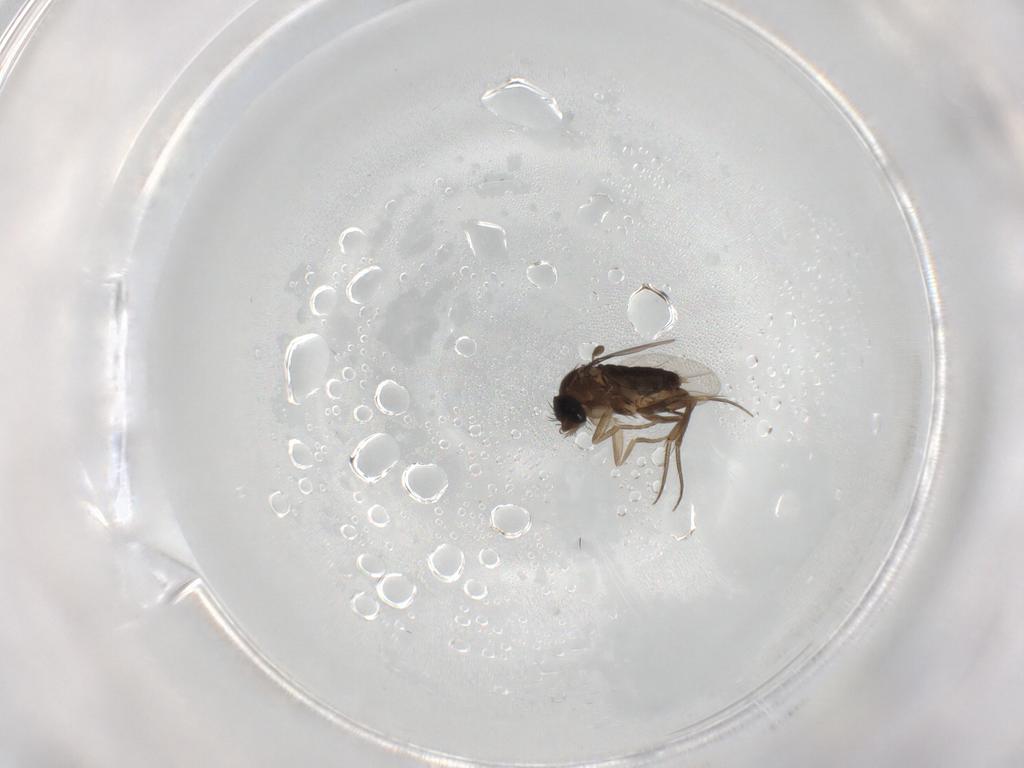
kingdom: Animalia
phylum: Arthropoda
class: Insecta
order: Diptera
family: Phoridae
